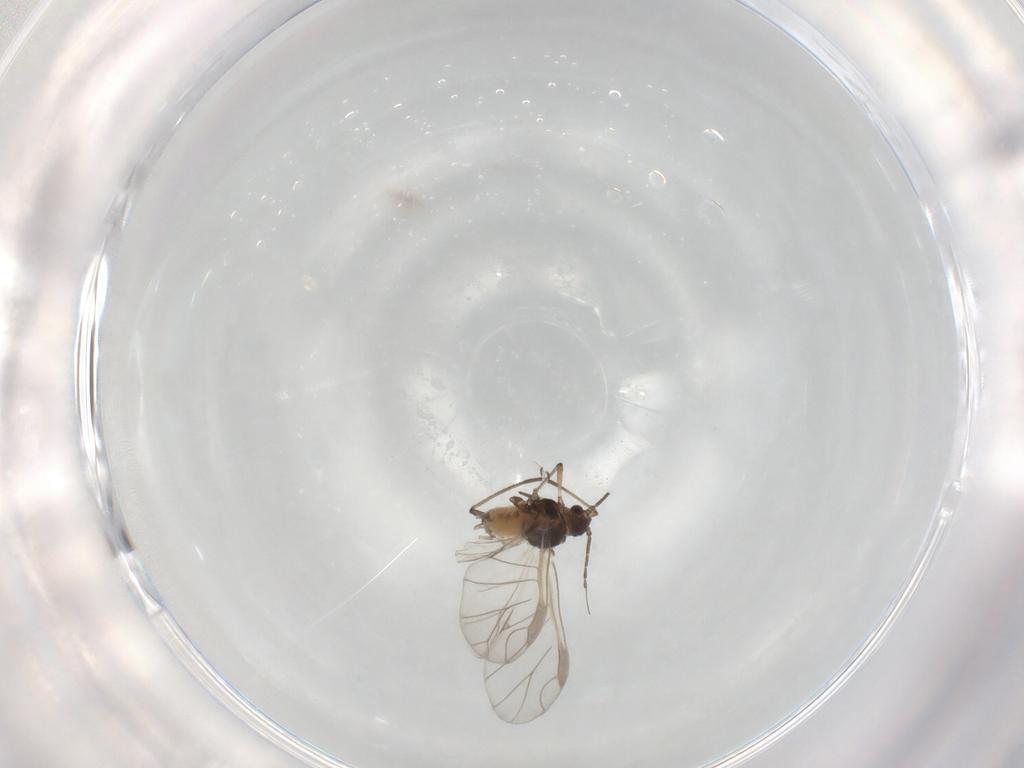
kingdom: Animalia
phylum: Arthropoda
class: Insecta
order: Hemiptera
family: Aphididae
